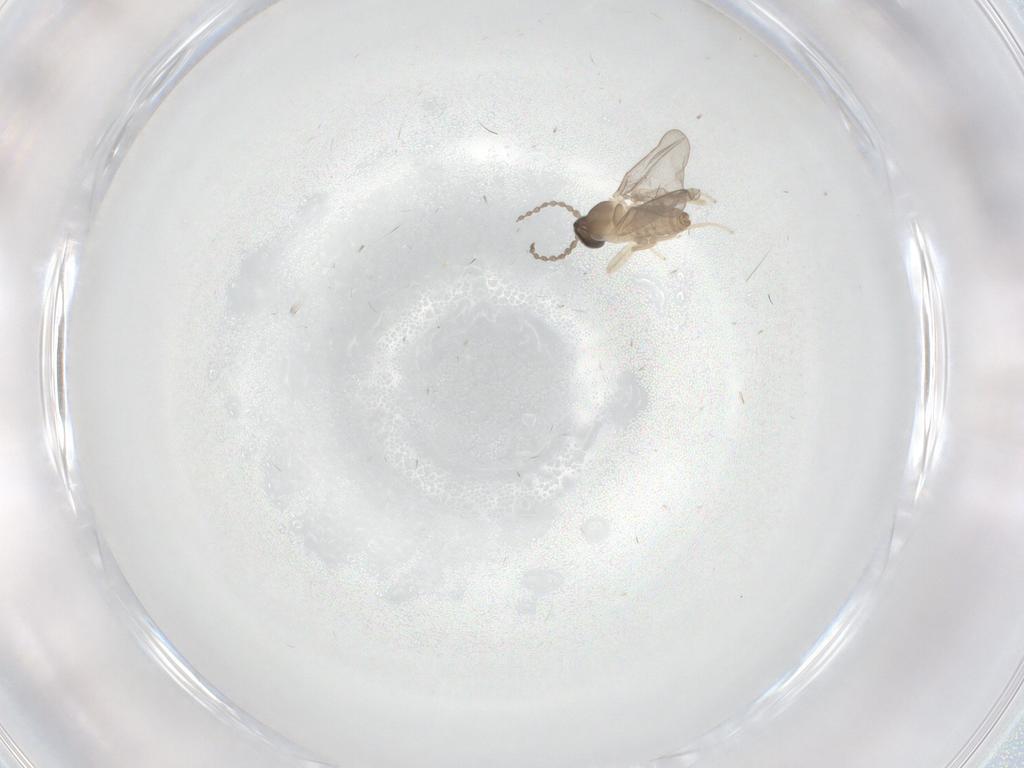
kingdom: Animalia
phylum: Arthropoda
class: Insecta
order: Diptera
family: Cecidomyiidae
